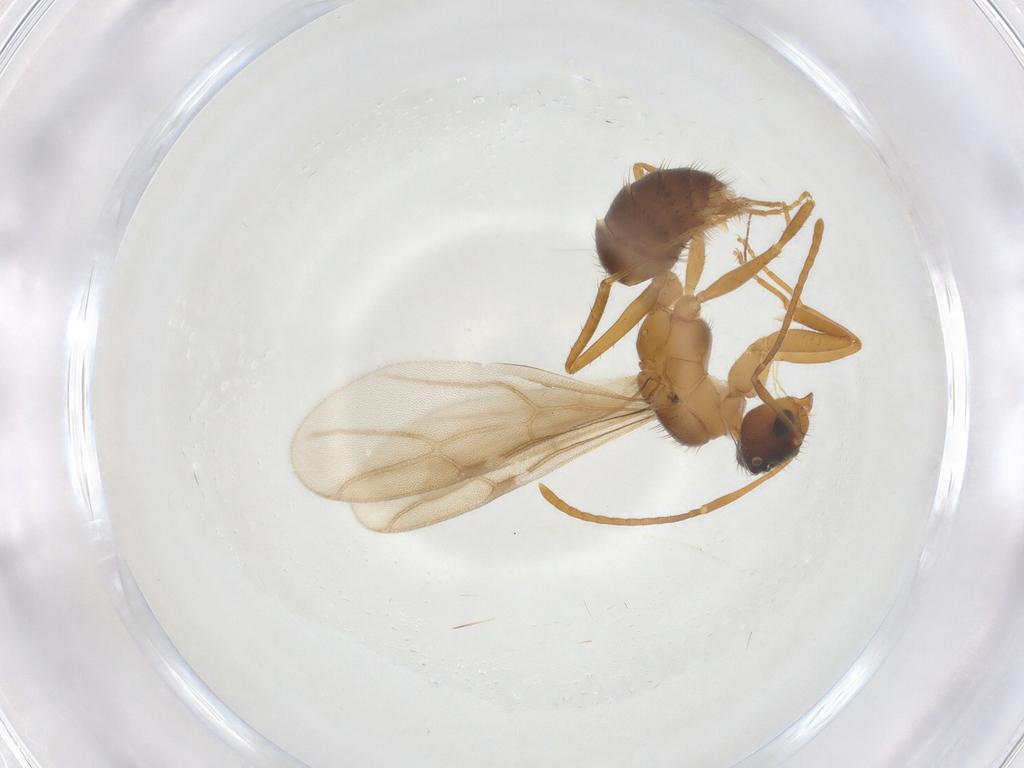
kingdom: Animalia
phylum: Arthropoda
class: Insecta
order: Hymenoptera
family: Formicidae
